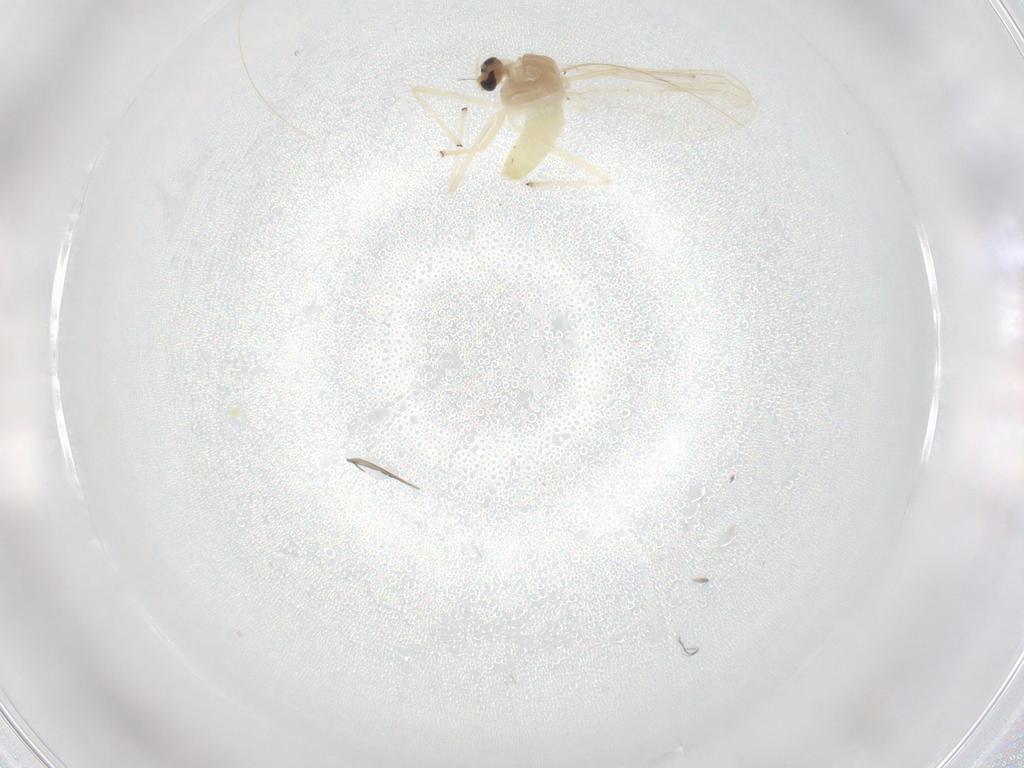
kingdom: Animalia
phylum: Arthropoda
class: Insecta
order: Diptera
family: Chironomidae
